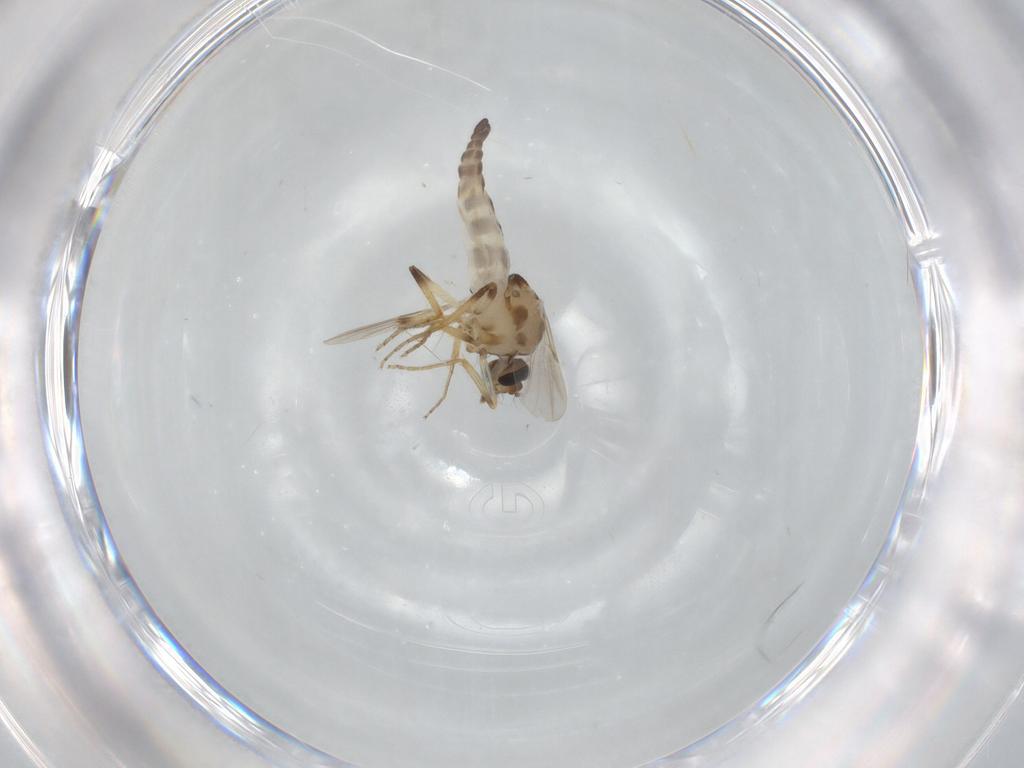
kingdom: Animalia
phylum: Arthropoda
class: Insecta
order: Diptera
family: Ceratopogonidae
